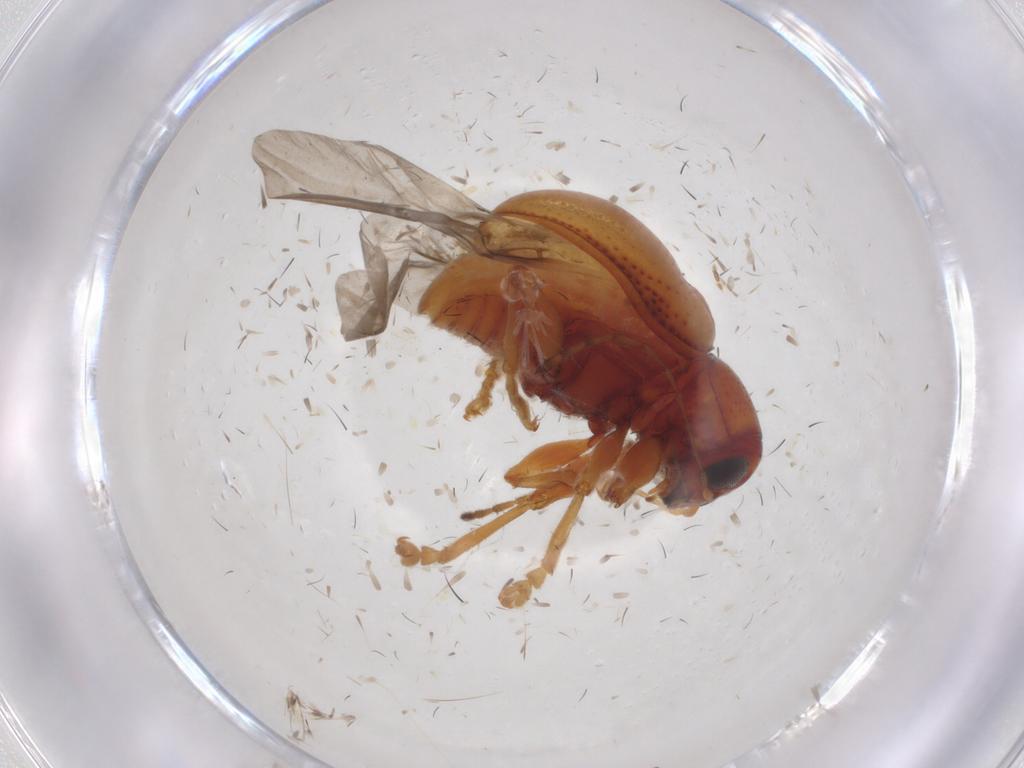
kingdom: Animalia
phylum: Arthropoda
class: Insecta
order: Coleoptera
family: Chrysomelidae
